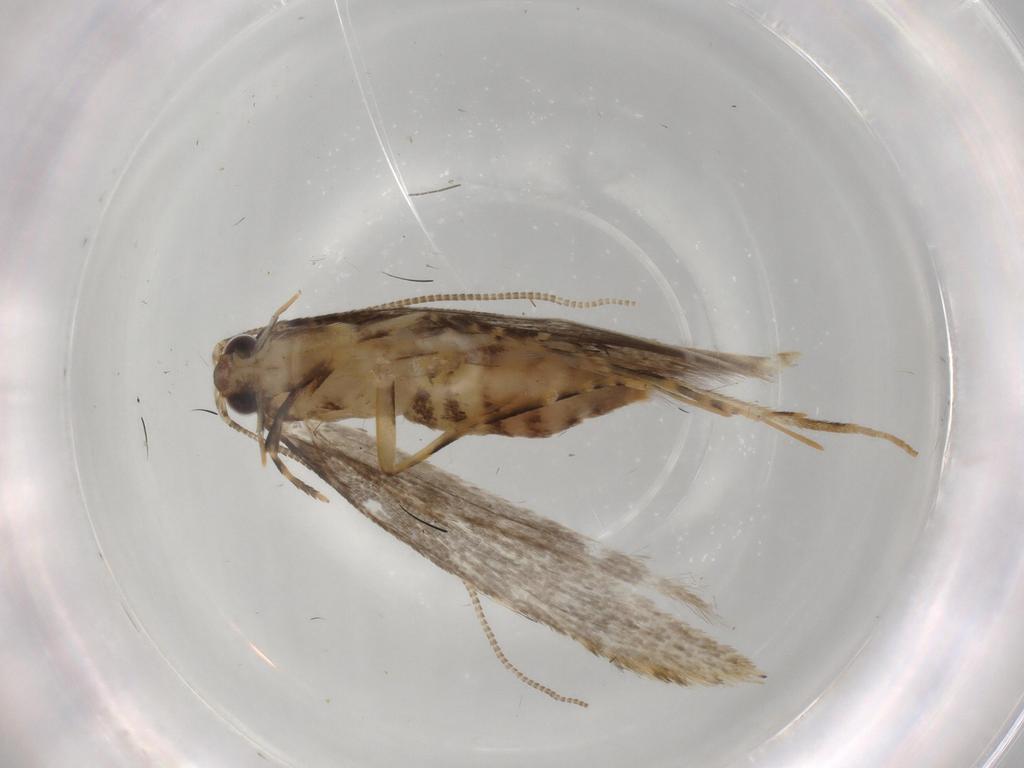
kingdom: Animalia
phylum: Arthropoda
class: Insecta
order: Lepidoptera
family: Tineidae
